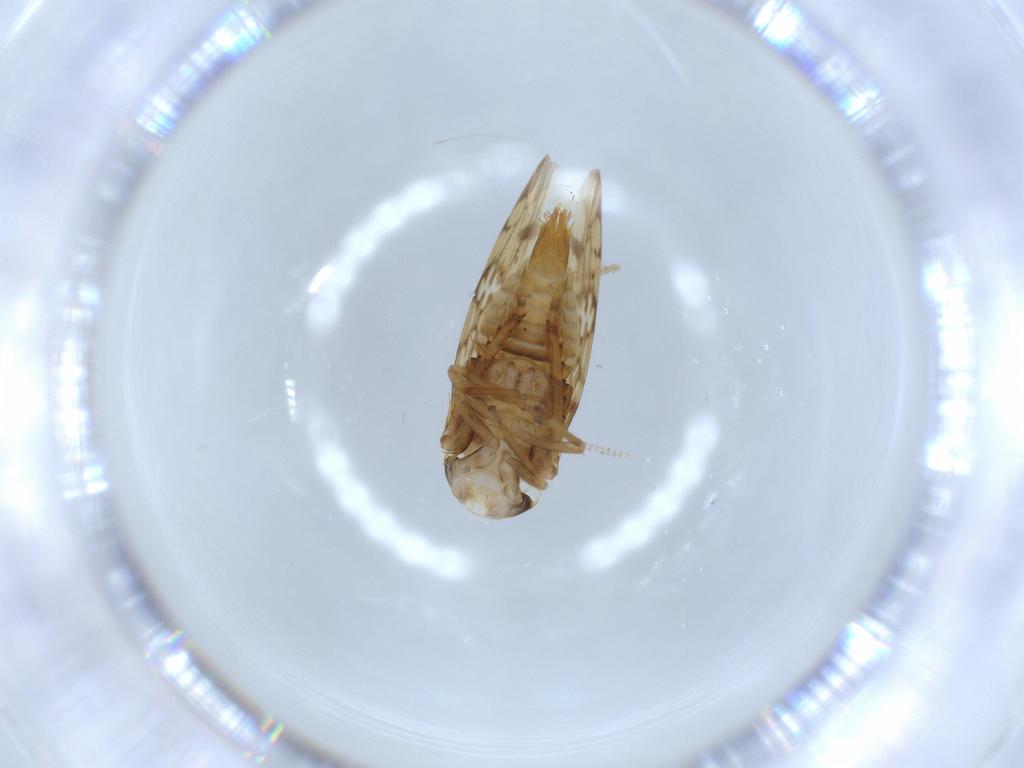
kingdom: Animalia
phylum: Arthropoda
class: Insecta
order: Hemiptera
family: Cicadellidae
